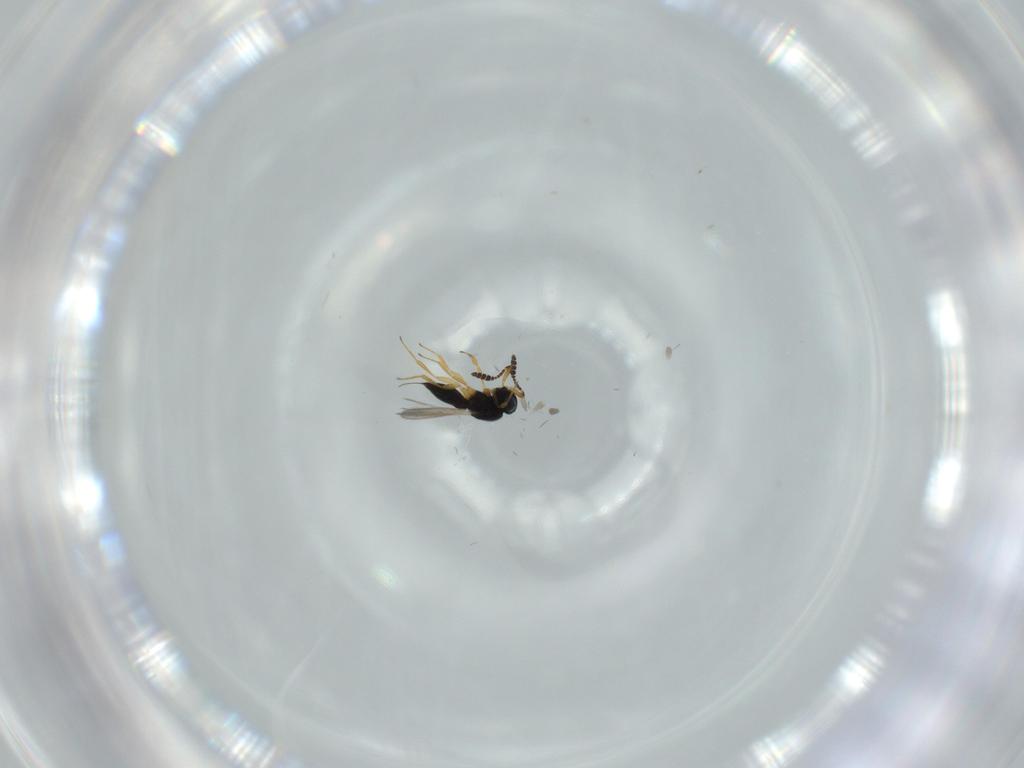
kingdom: Animalia
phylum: Arthropoda
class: Insecta
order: Hymenoptera
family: Scelionidae
